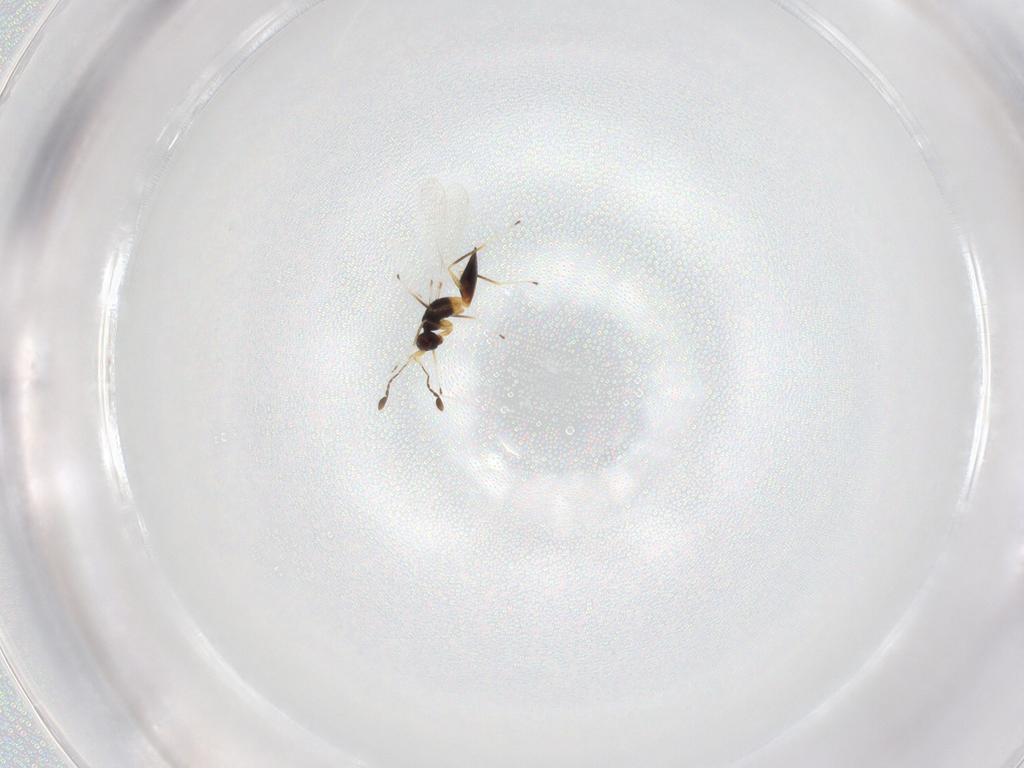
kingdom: Animalia
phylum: Arthropoda
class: Insecta
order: Hymenoptera
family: Mymaridae
